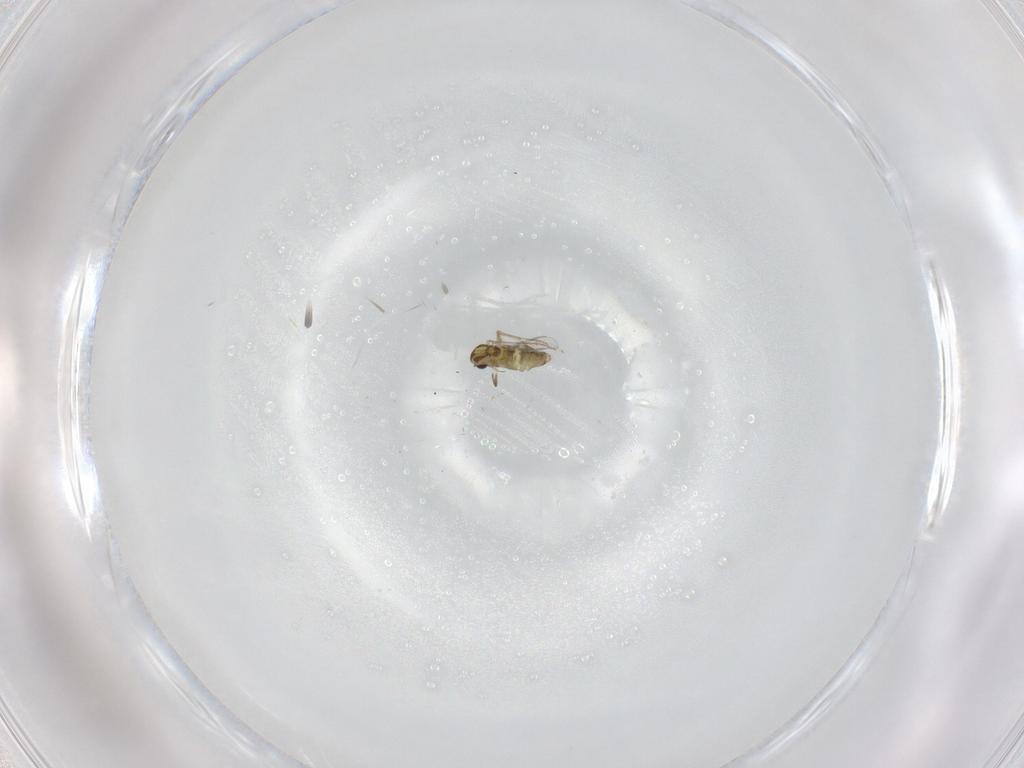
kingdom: Animalia
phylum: Arthropoda
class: Insecta
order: Diptera
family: Chironomidae
